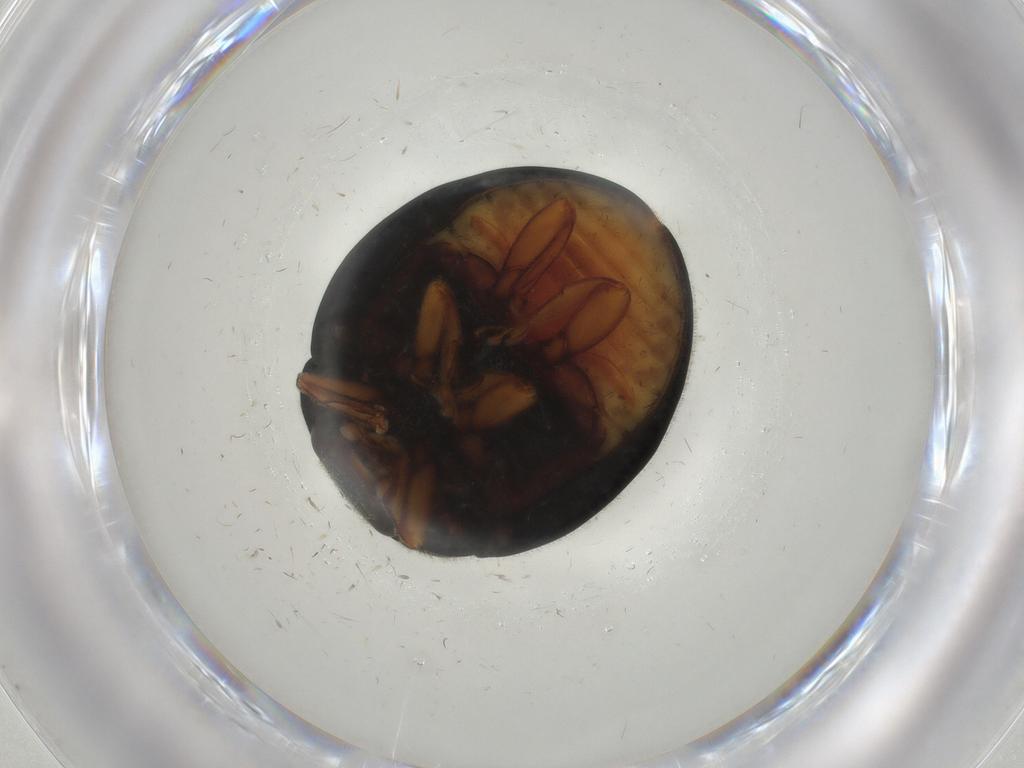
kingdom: Animalia
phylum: Arthropoda
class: Insecta
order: Coleoptera
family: Coccinellidae
